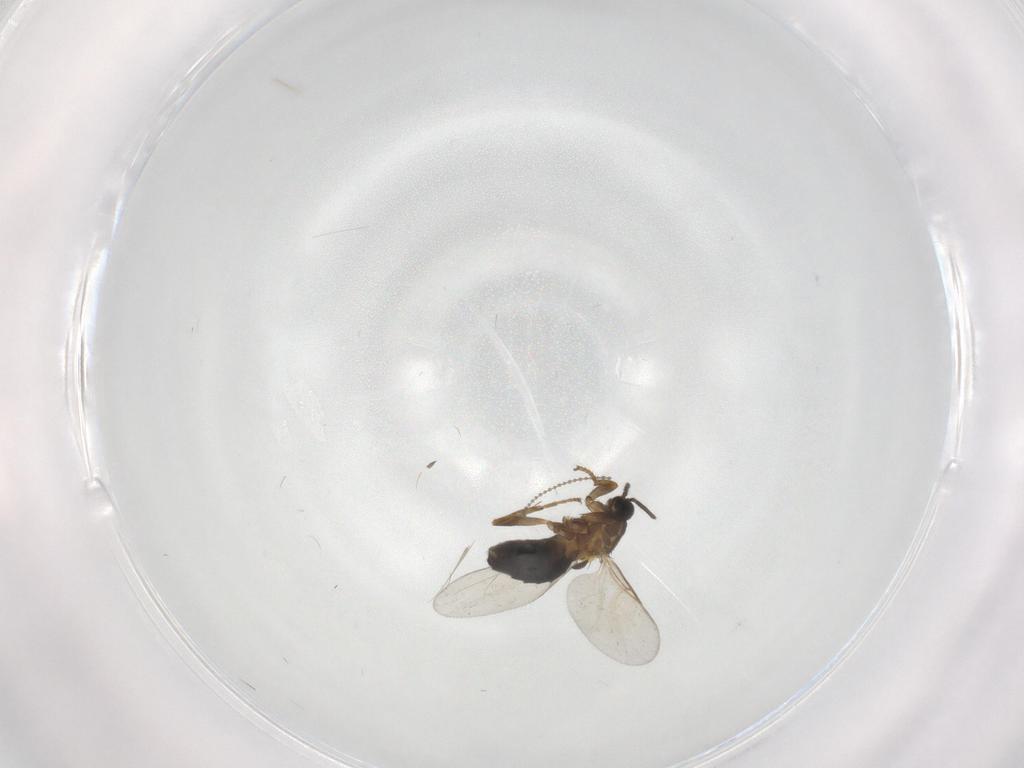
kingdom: Animalia
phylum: Arthropoda
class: Insecta
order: Diptera
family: Scatopsidae
